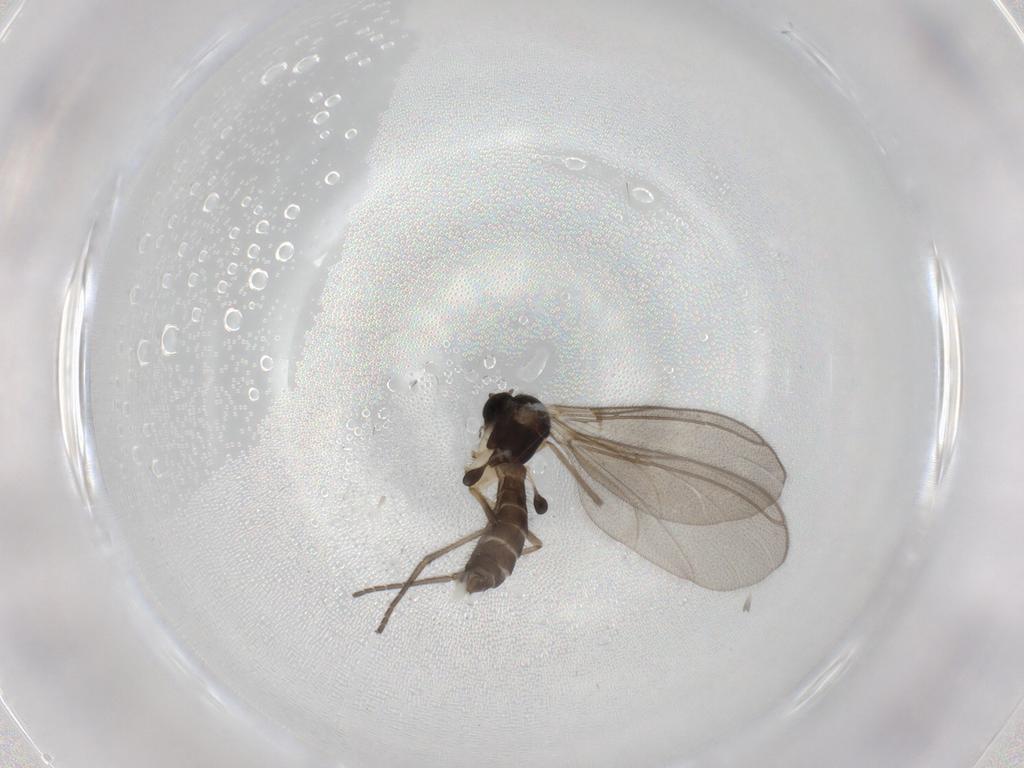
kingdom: Animalia
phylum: Arthropoda
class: Insecta
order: Diptera
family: Mycetophilidae
